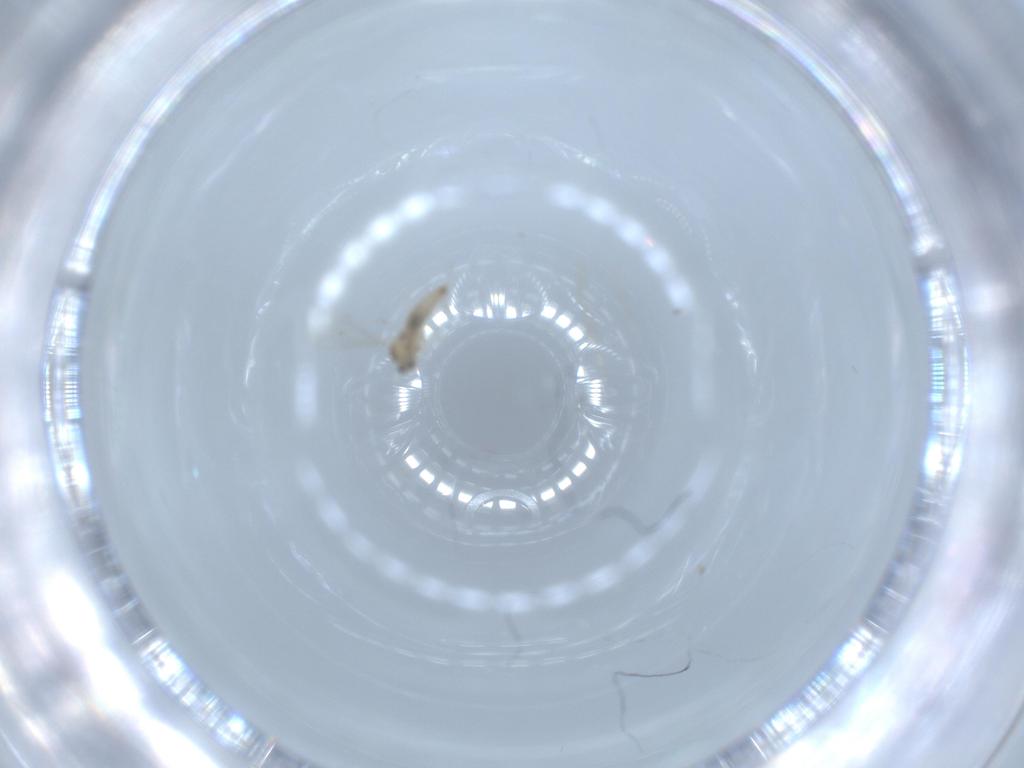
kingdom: Animalia
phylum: Arthropoda
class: Insecta
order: Diptera
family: Cecidomyiidae
